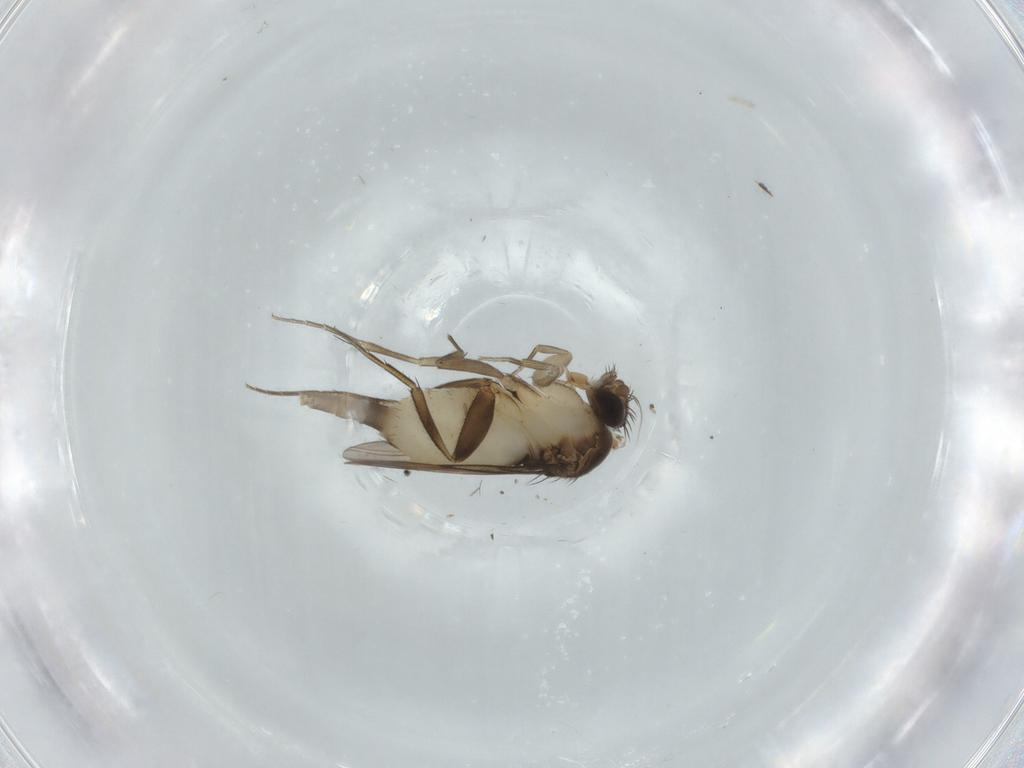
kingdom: Animalia
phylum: Arthropoda
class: Insecta
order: Diptera
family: Phoridae
